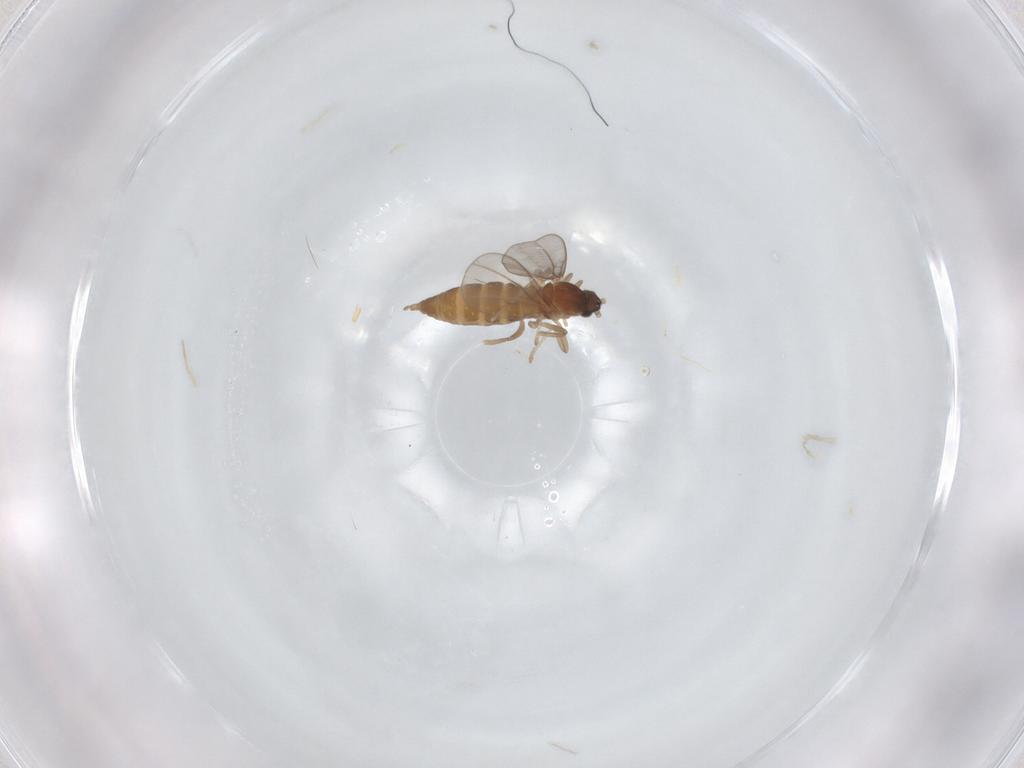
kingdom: Animalia
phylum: Arthropoda
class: Insecta
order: Diptera
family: Cecidomyiidae
